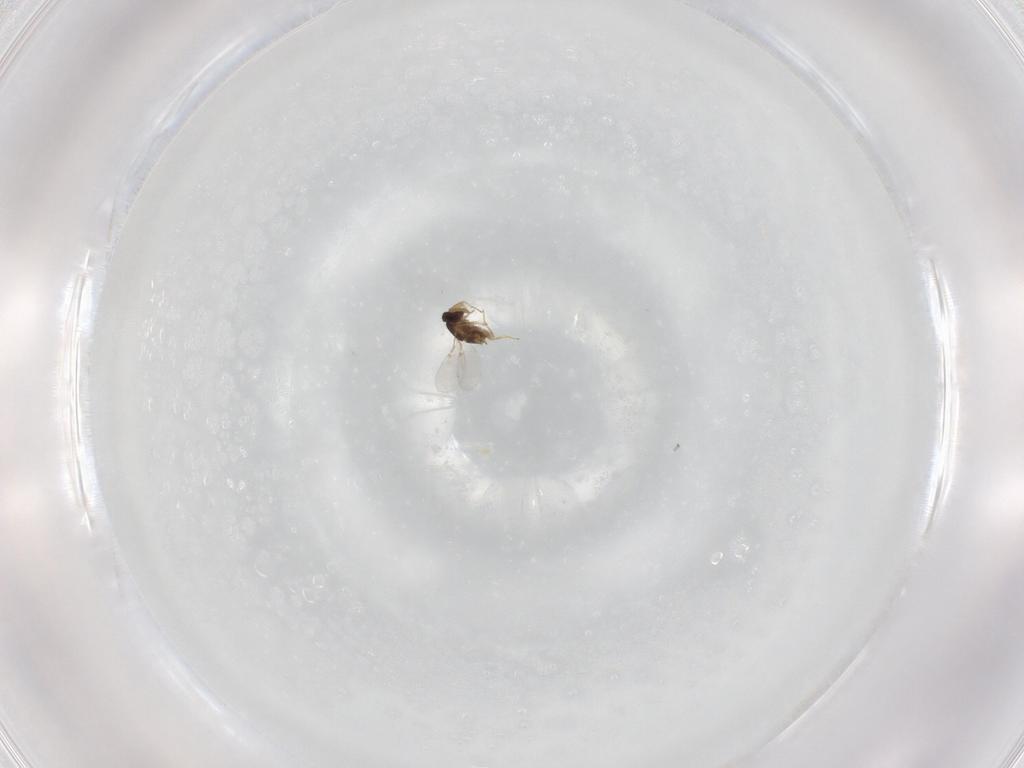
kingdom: Animalia
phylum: Arthropoda
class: Insecta
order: Hymenoptera
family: Encyrtidae
